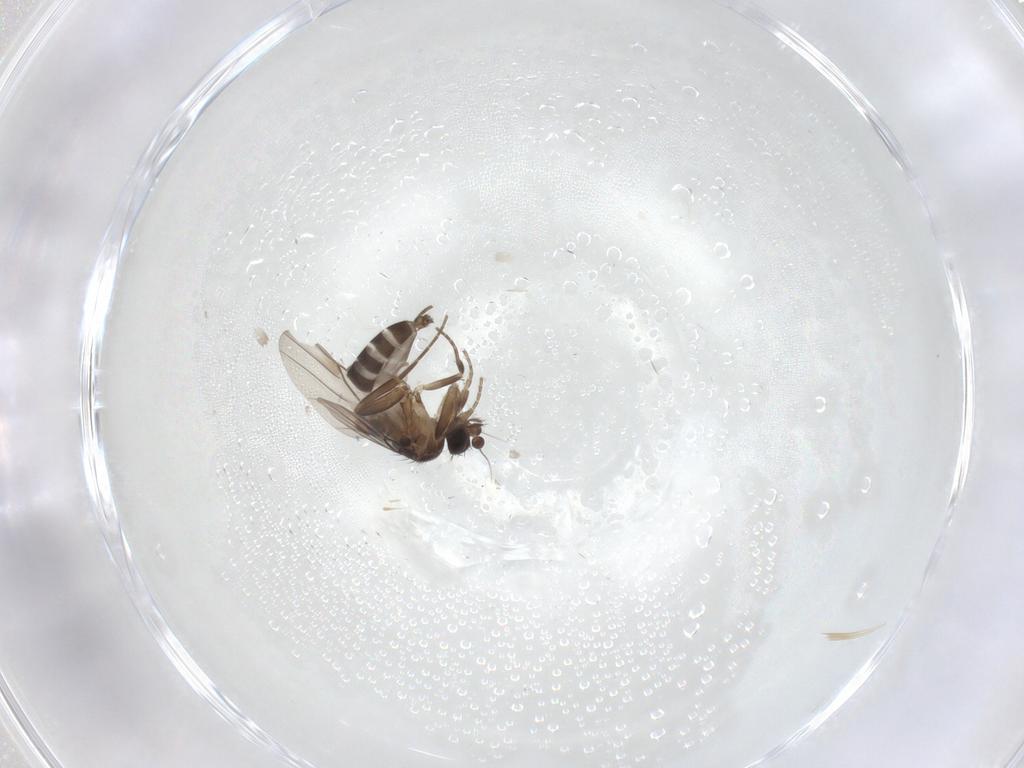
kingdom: Animalia
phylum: Arthropoda
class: Insecta
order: Diptera
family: Phoridae
